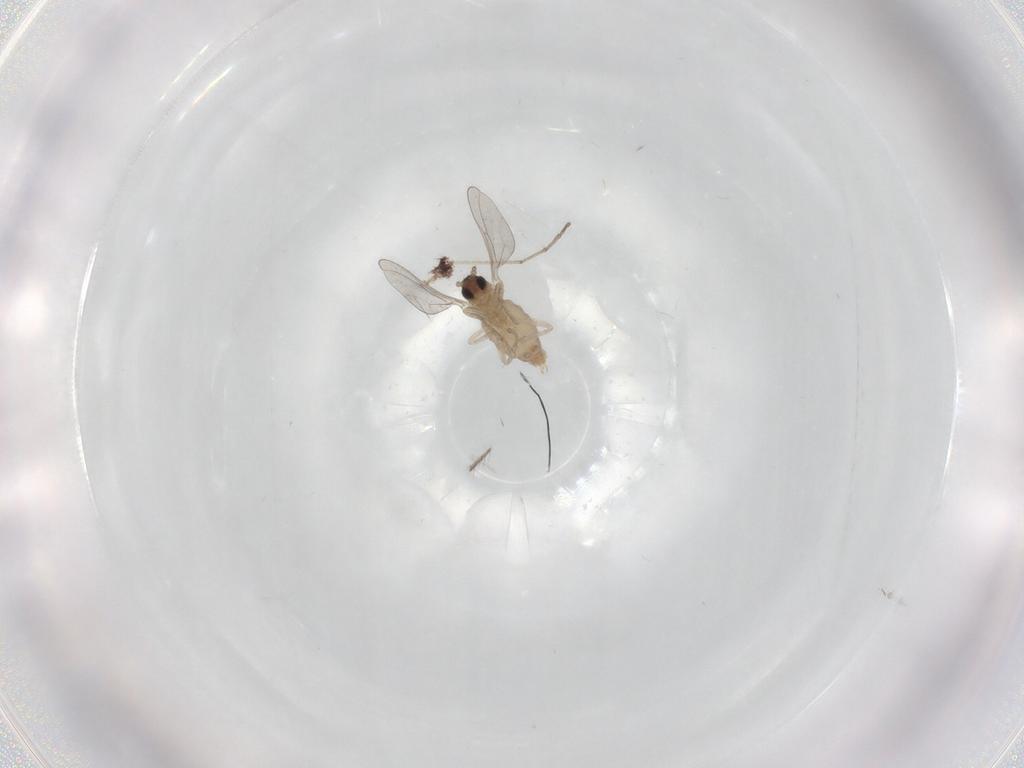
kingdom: Animalia
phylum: Arthropoda
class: Insecta
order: Diptera
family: Cecidomyiidae
